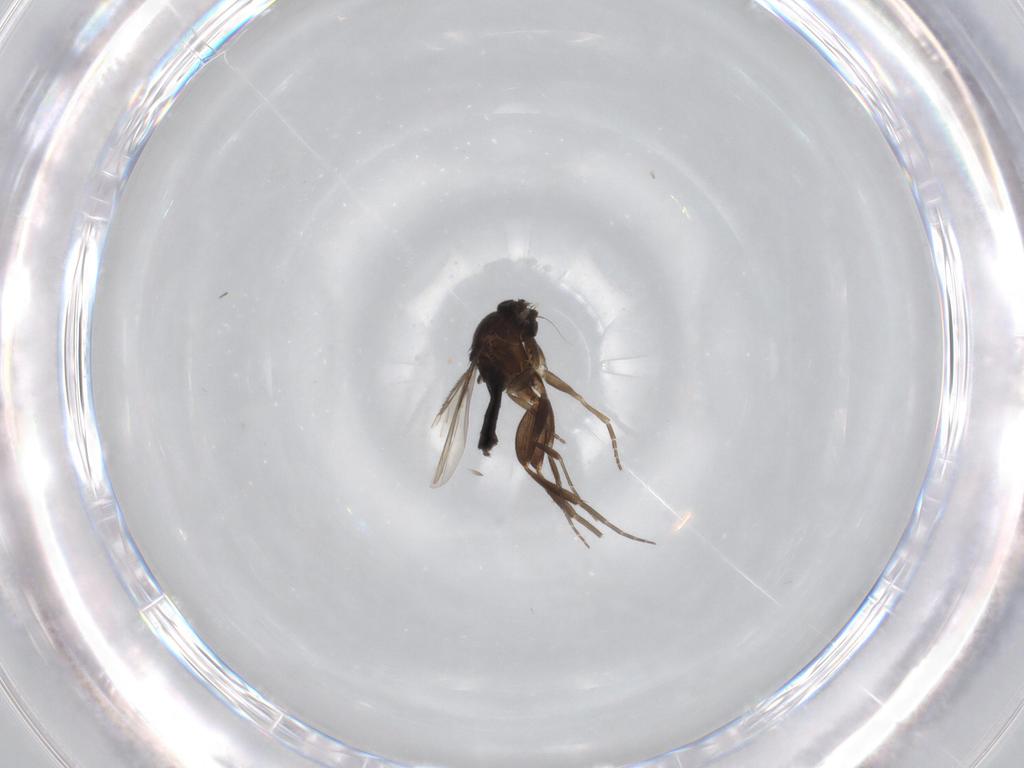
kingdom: Animalia
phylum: Arthropoda
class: Insecta
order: Diptera
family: Phoridae
